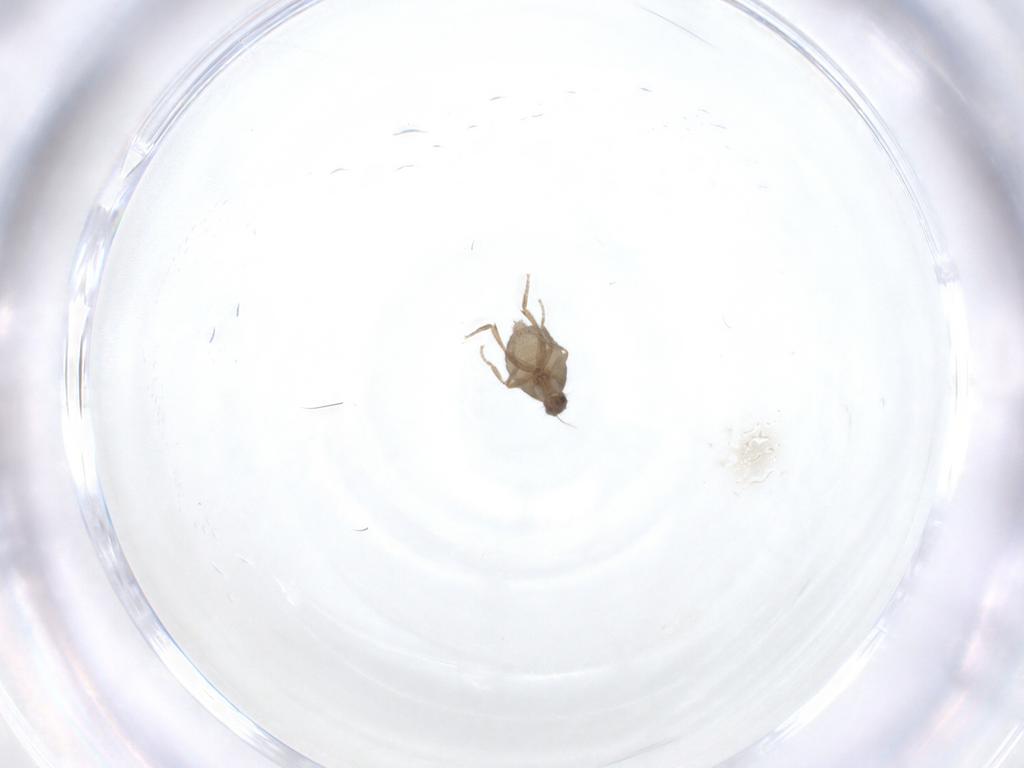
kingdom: Animalia
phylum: Arthropoda
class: Insecta
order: Diptera
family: Phoridae
